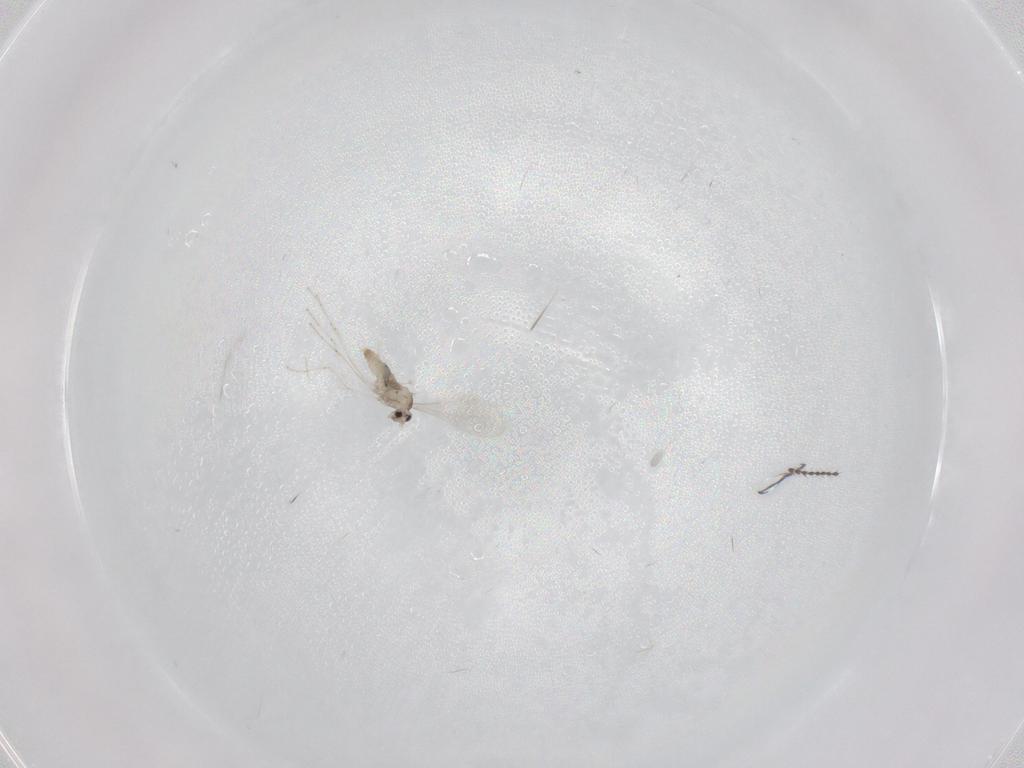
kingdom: Animalia
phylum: Arthropoda
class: Insecta
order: Diptera
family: Cecidomyiidae
